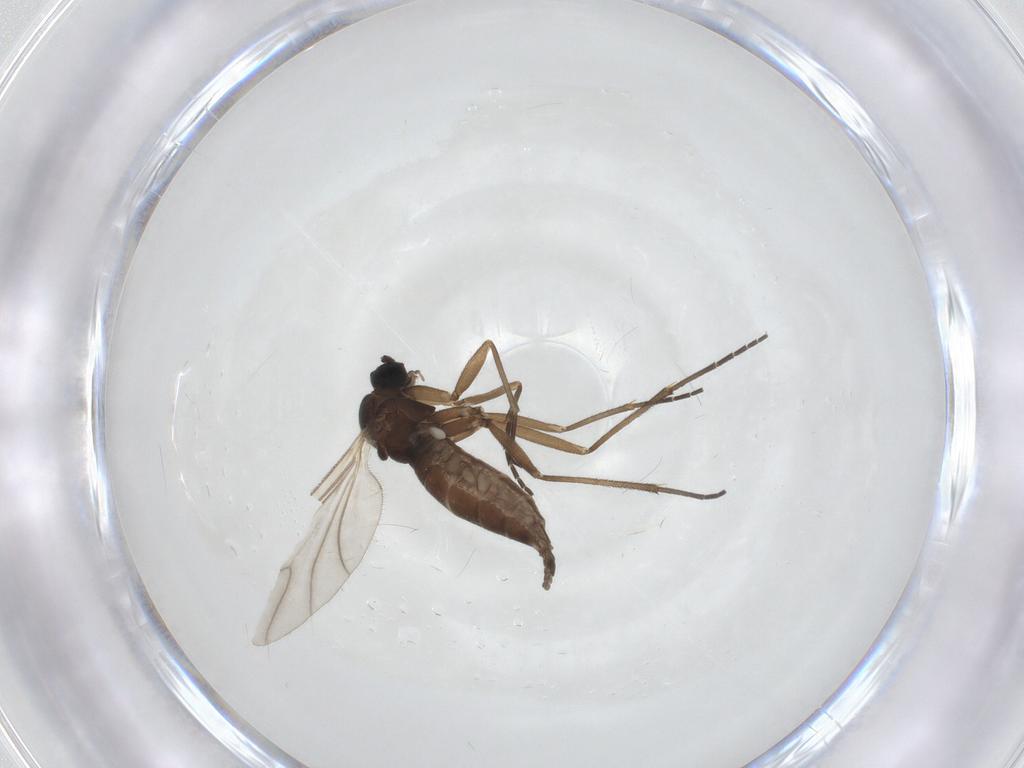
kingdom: Animalia
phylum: Arthropoda
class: Insecta
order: Diptera
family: Sciaridae
